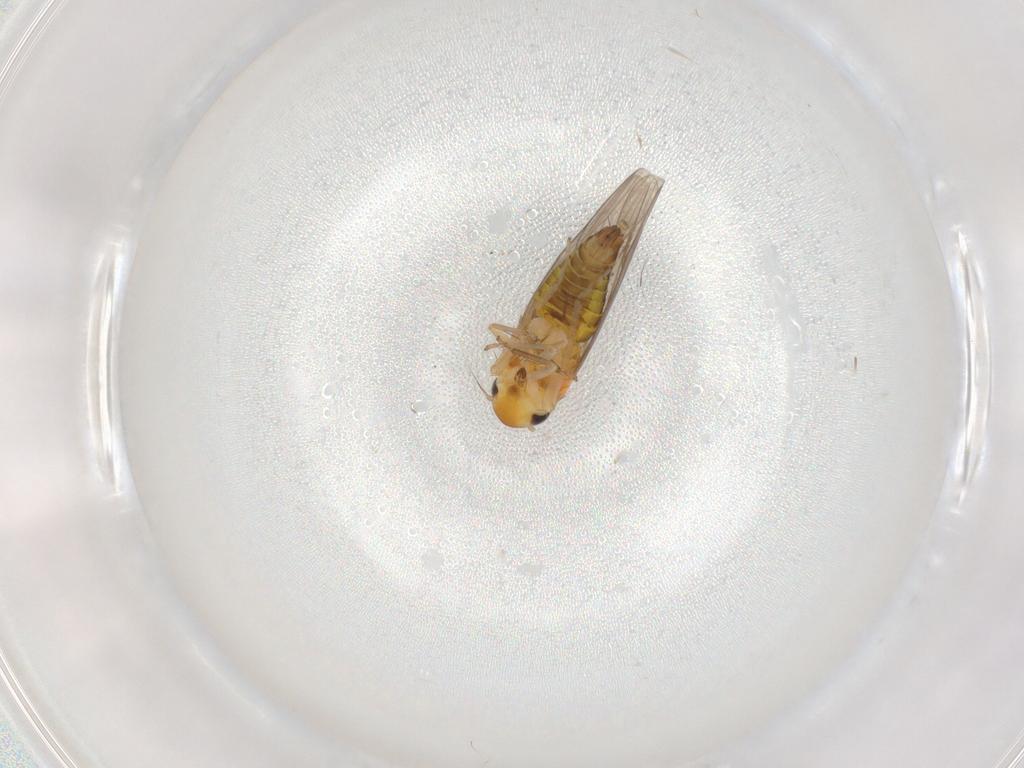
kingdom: Animalia
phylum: Arthropoda
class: Insecta
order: Hemiptera
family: Cicadellidae
